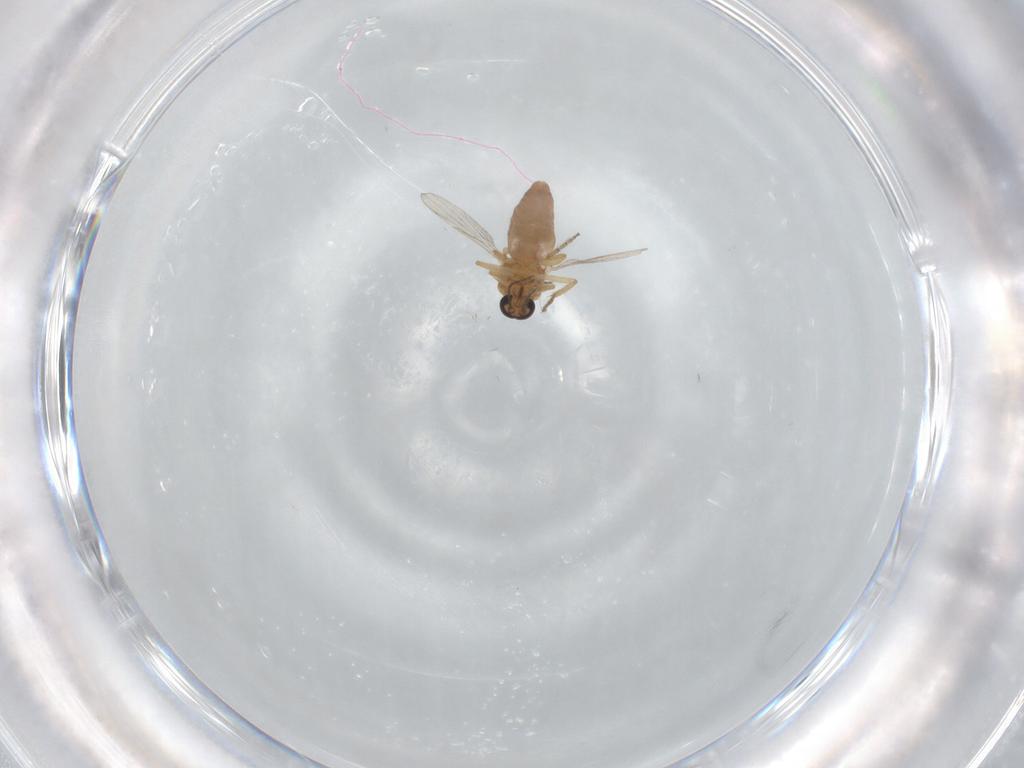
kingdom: Animalia
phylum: Arthropoda
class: Insecta
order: Diptera
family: Ceratopogonidae
